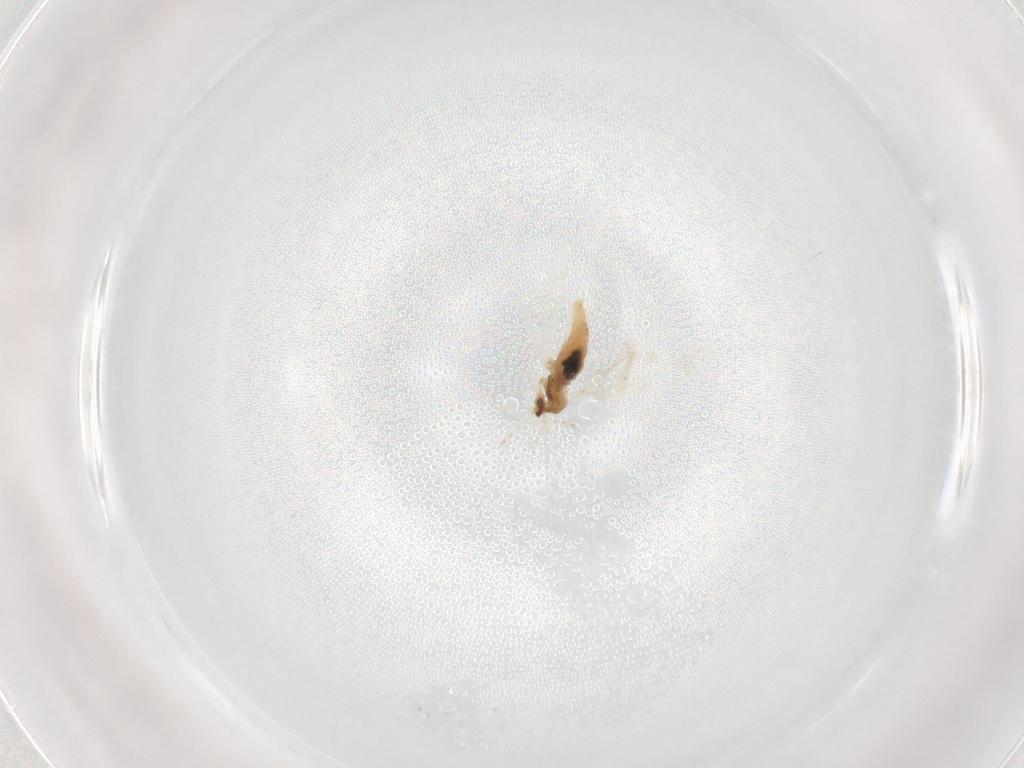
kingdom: Animalia
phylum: Arthropoda
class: Insecta
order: Diptera
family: Cecidomyiidae
